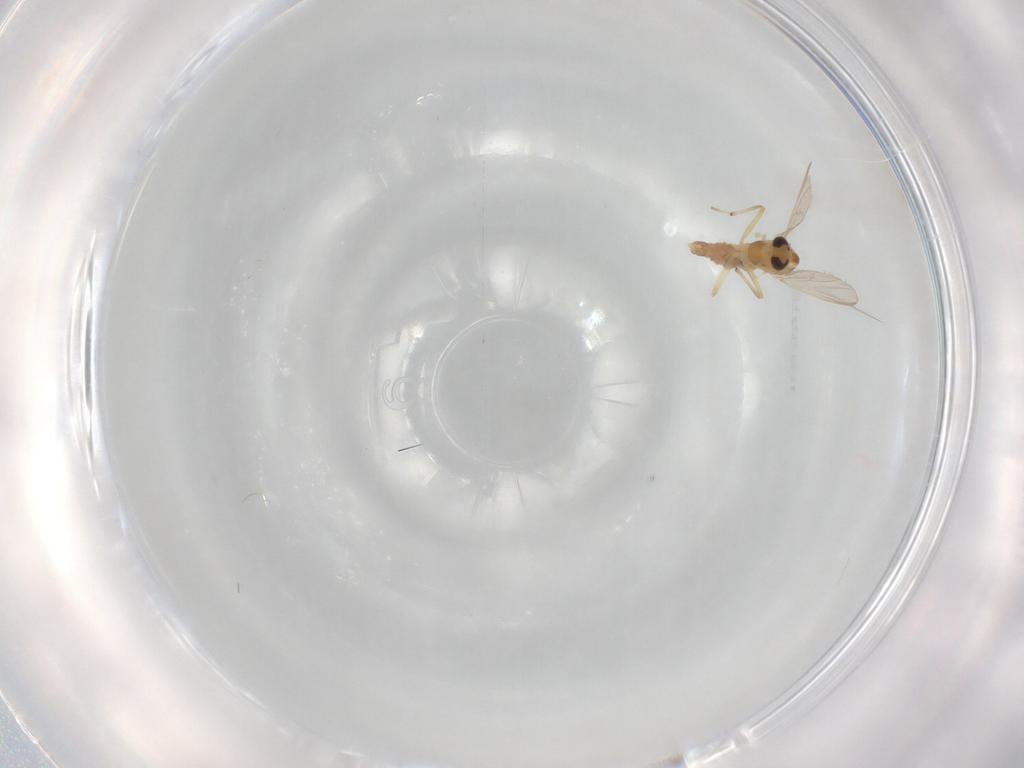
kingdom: Animalia
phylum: Arthropoda
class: Insecta
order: Diptera
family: Chironomidae
